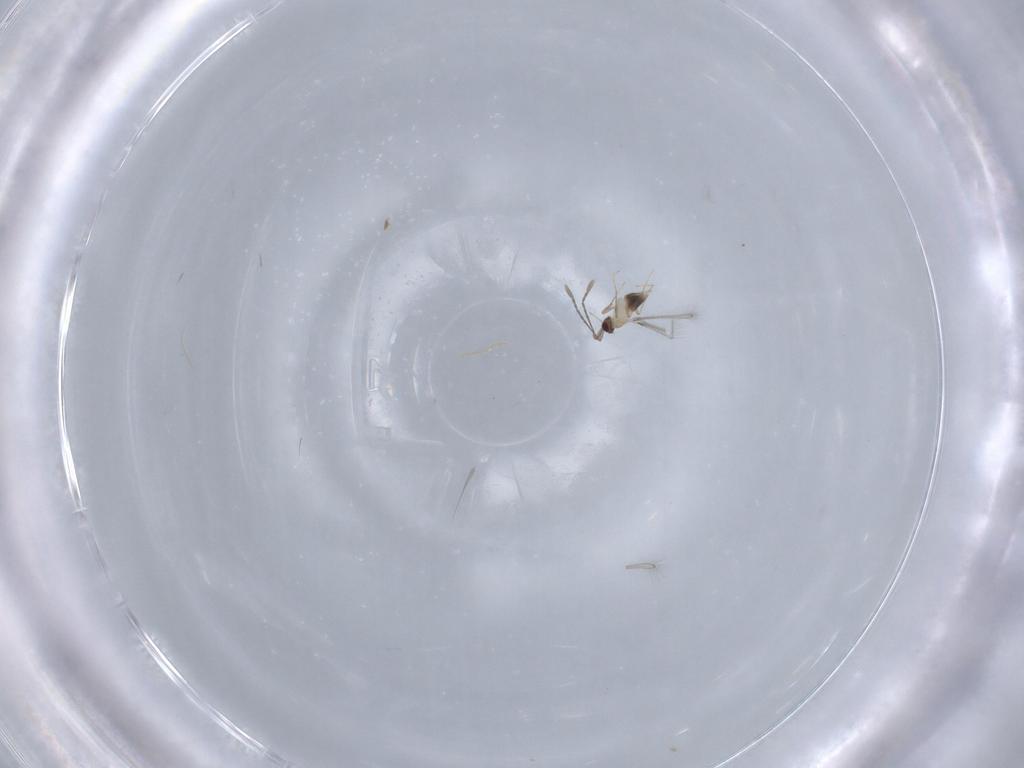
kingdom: Animalia
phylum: Arthropoda
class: Insecta
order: Hymenoptera
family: Mymaridae
